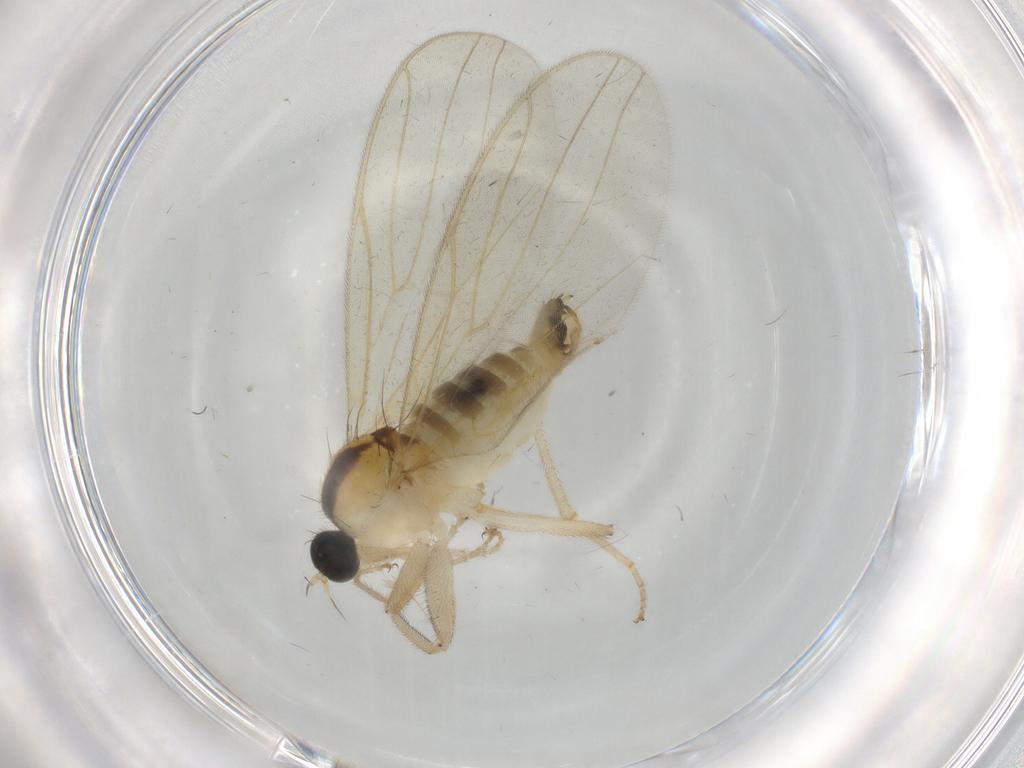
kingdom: Animalia
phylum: Arthropoda
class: Insecta
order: Diptera
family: Hybotidae
